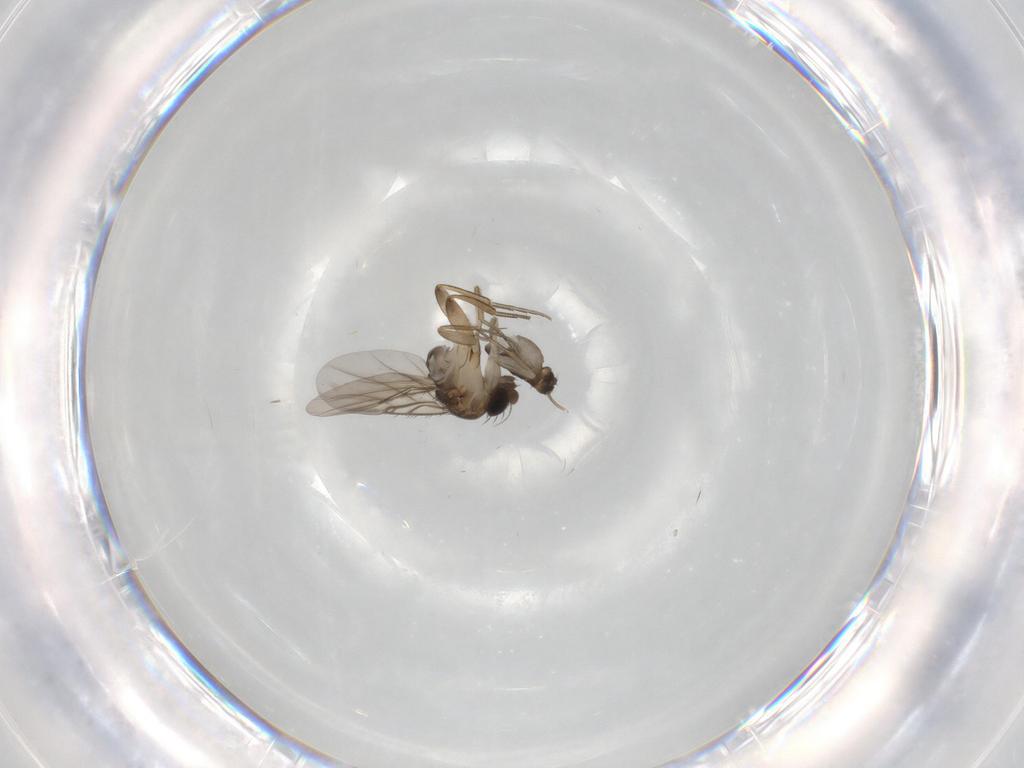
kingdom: Animalia
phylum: Arthropoda
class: Insecta
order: Diptera
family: Phoridae
